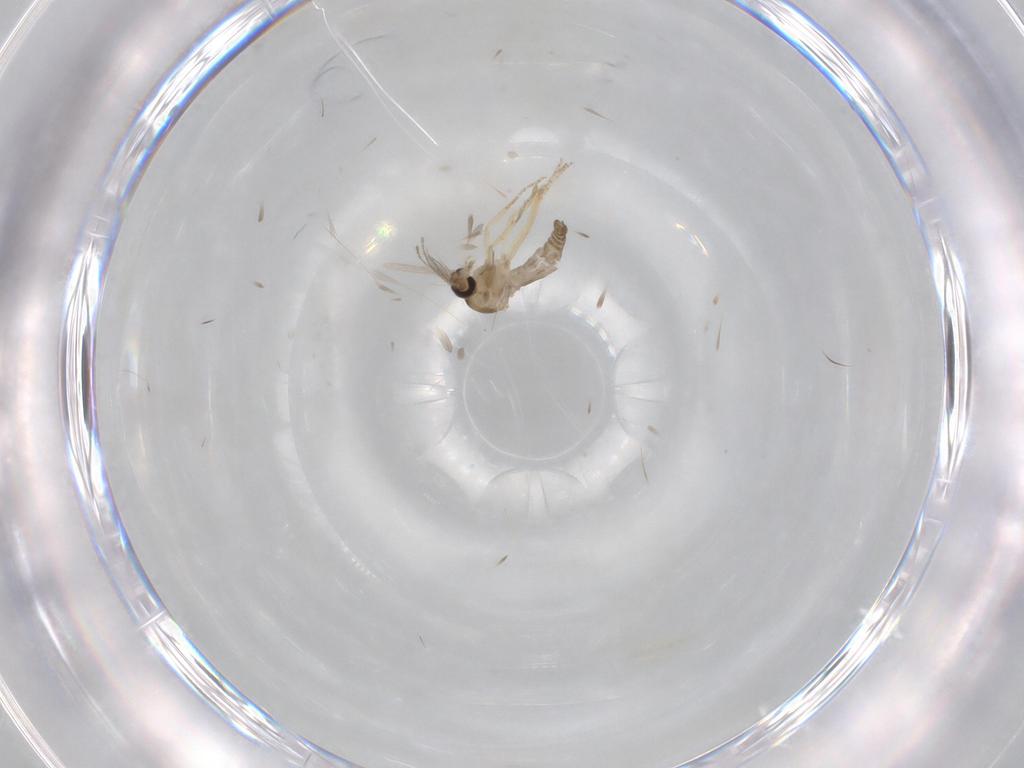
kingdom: Animalia
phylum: Arthropoda
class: Insecta
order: Diptera
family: Ceratopogonidae
